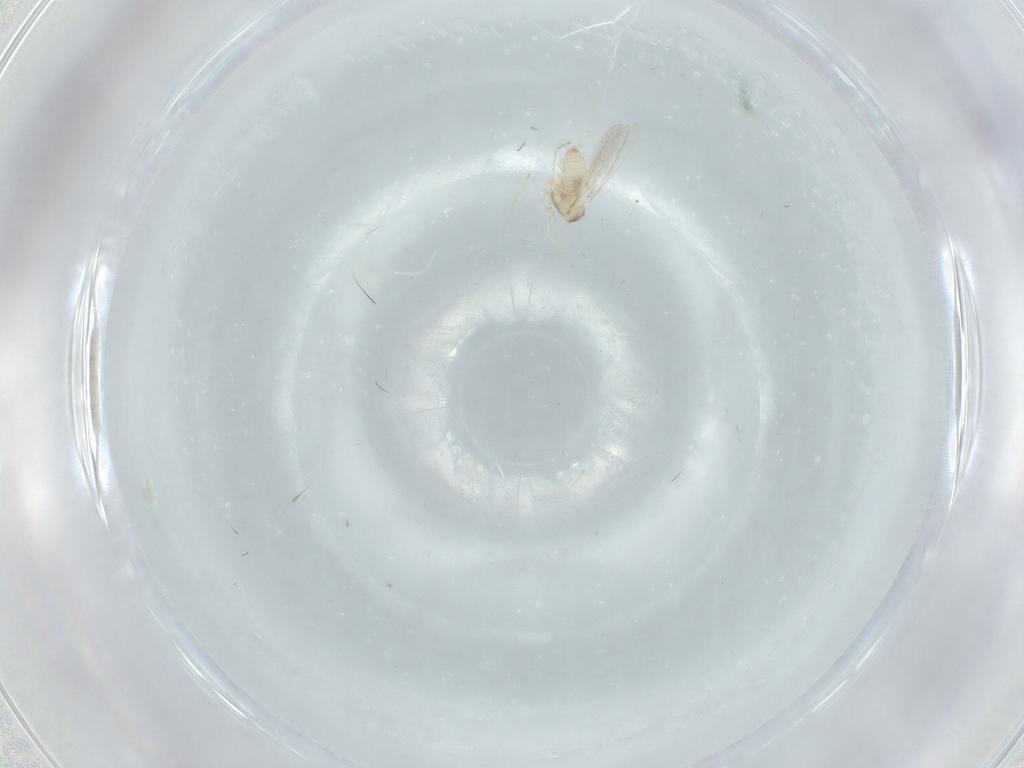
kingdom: Animalia
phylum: Arthropoda
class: Insecta
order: Diptera
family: Cecidomyiidae
